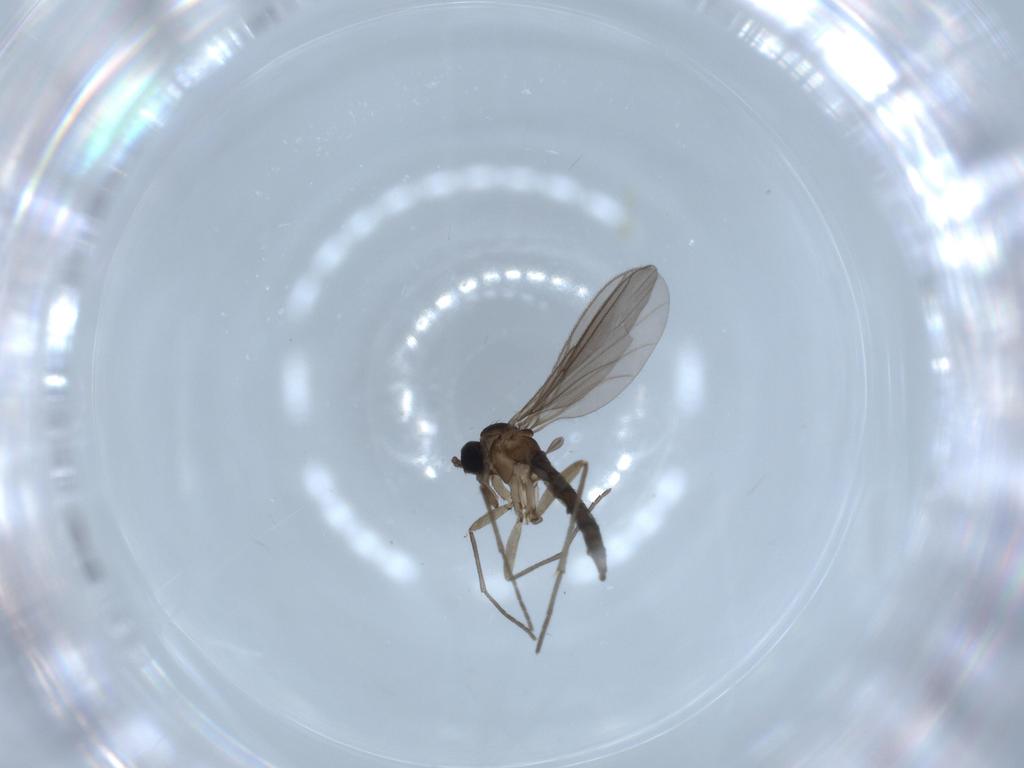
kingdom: Animalia
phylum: Arthropoda
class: Insecta
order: Diptera
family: Sciaridae
